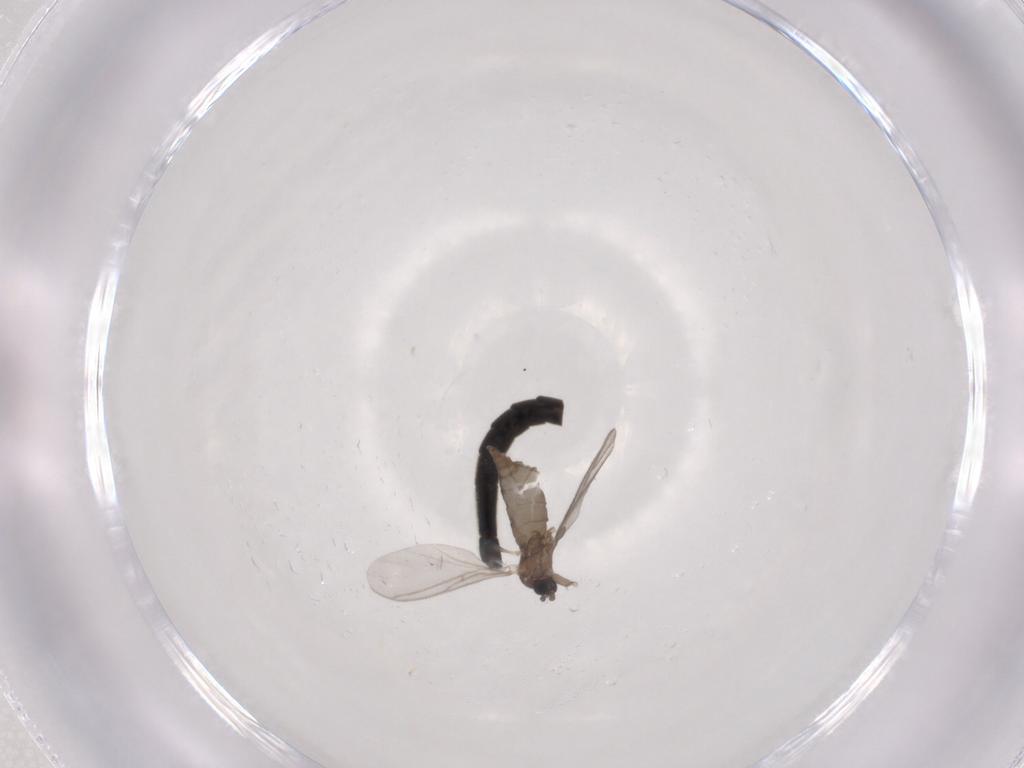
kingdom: Animalia
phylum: Arthropoda
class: Insecta
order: Diptera
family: Sciaridae
